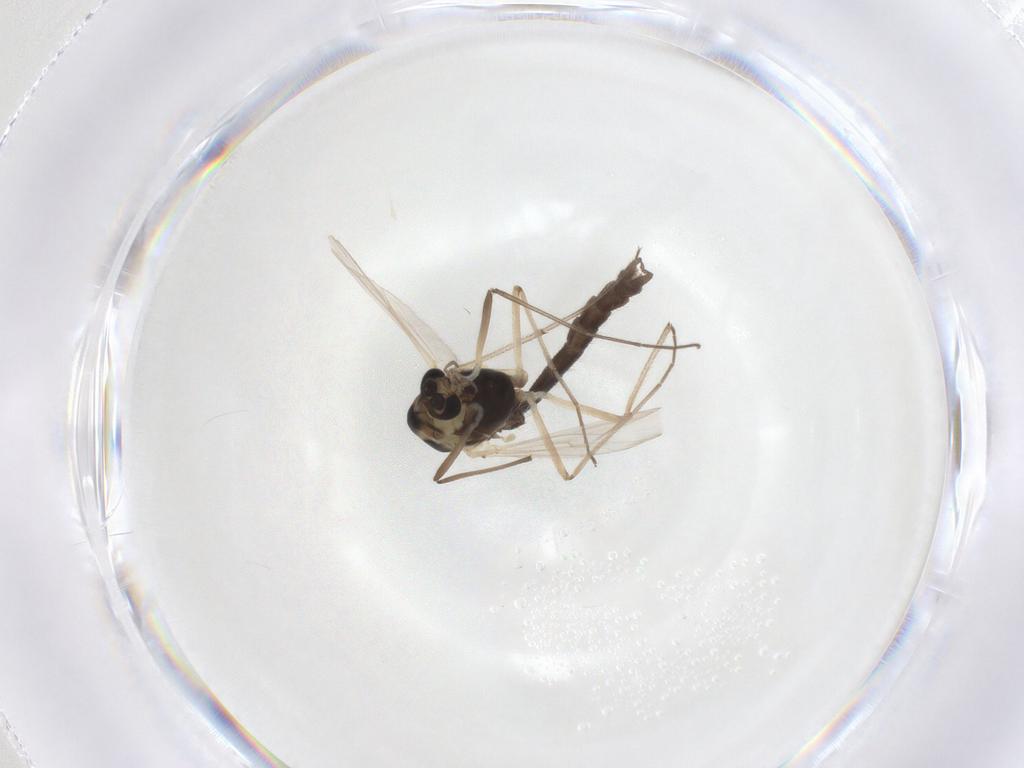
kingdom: Animalia
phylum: Arthropoda
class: Insecta
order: Diptera
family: Chironomidae
